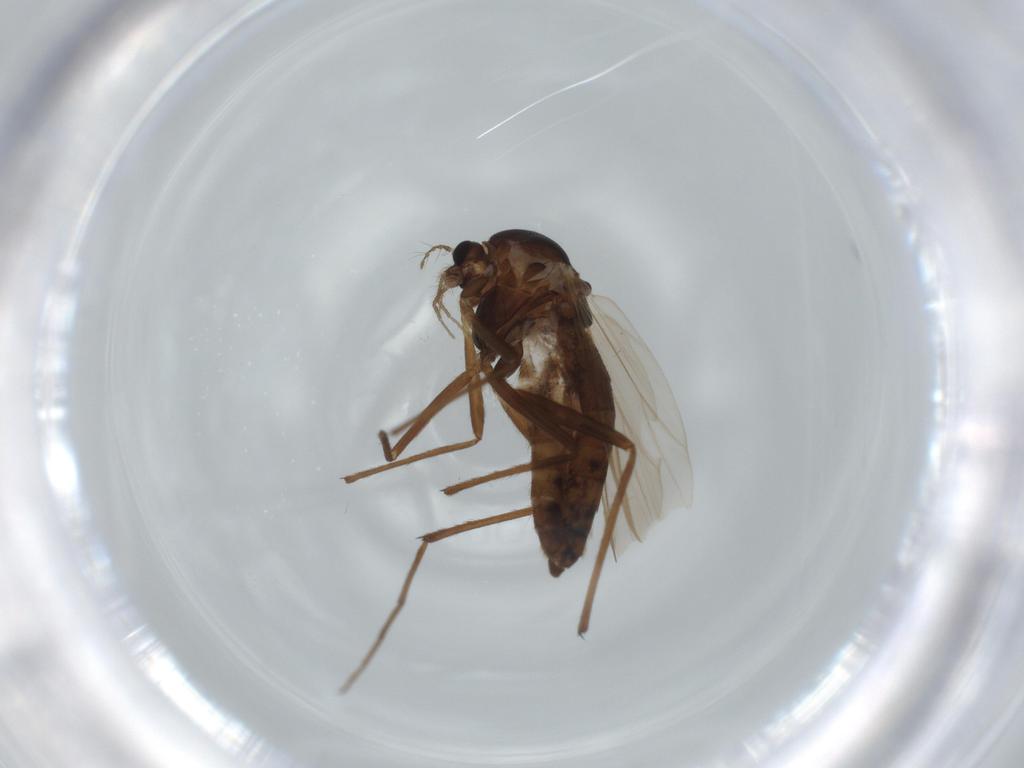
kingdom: Animalia
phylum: Arthropoda
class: Insecta
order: Diptera
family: Chironomidae
